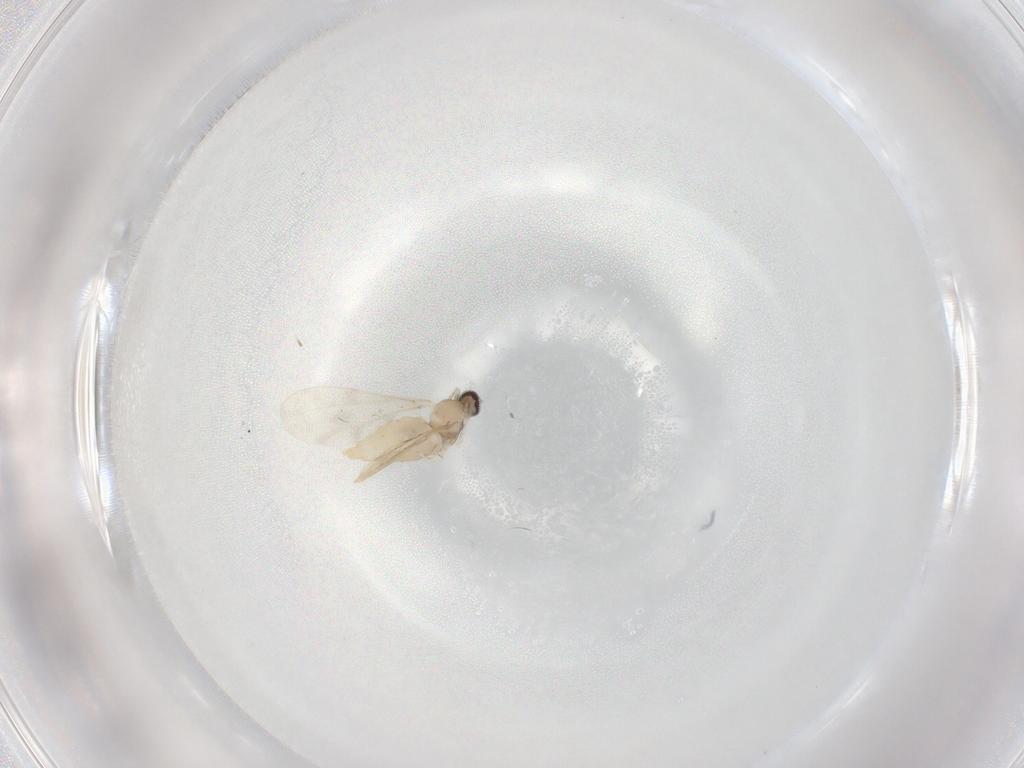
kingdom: Animalia
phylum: Arthropoda
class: Insecta
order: Diptera
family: Cecidomyiidae
